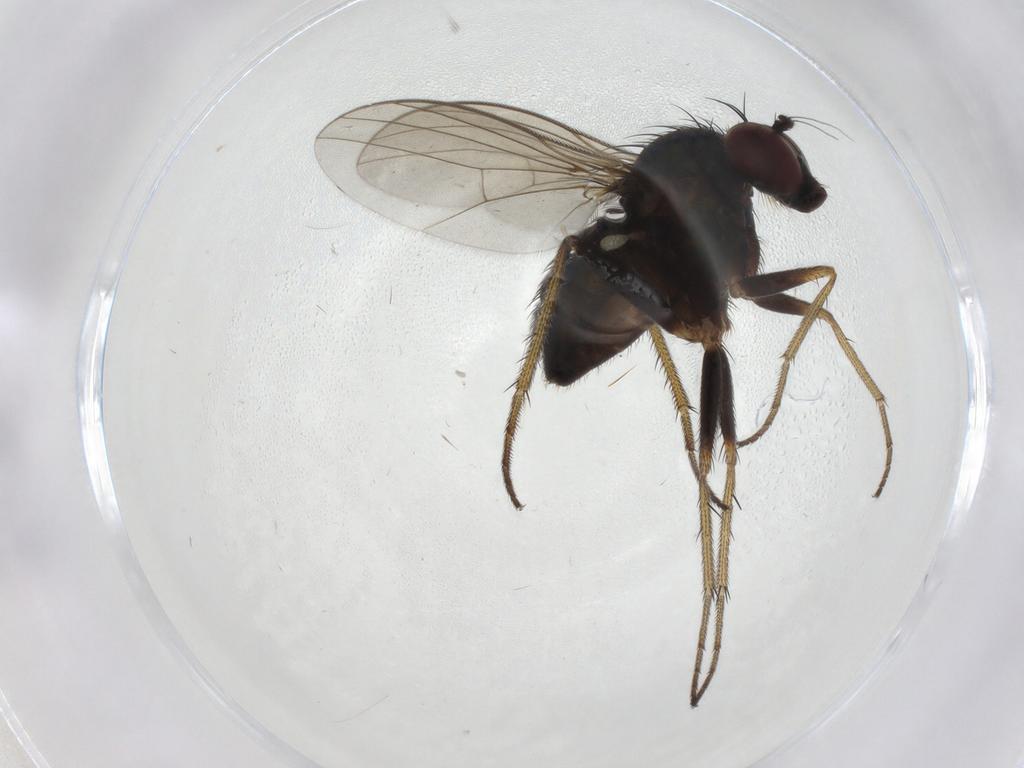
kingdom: Animalia
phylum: Arthropoda
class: Insecta
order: Diptera
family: Dolichopodidae
